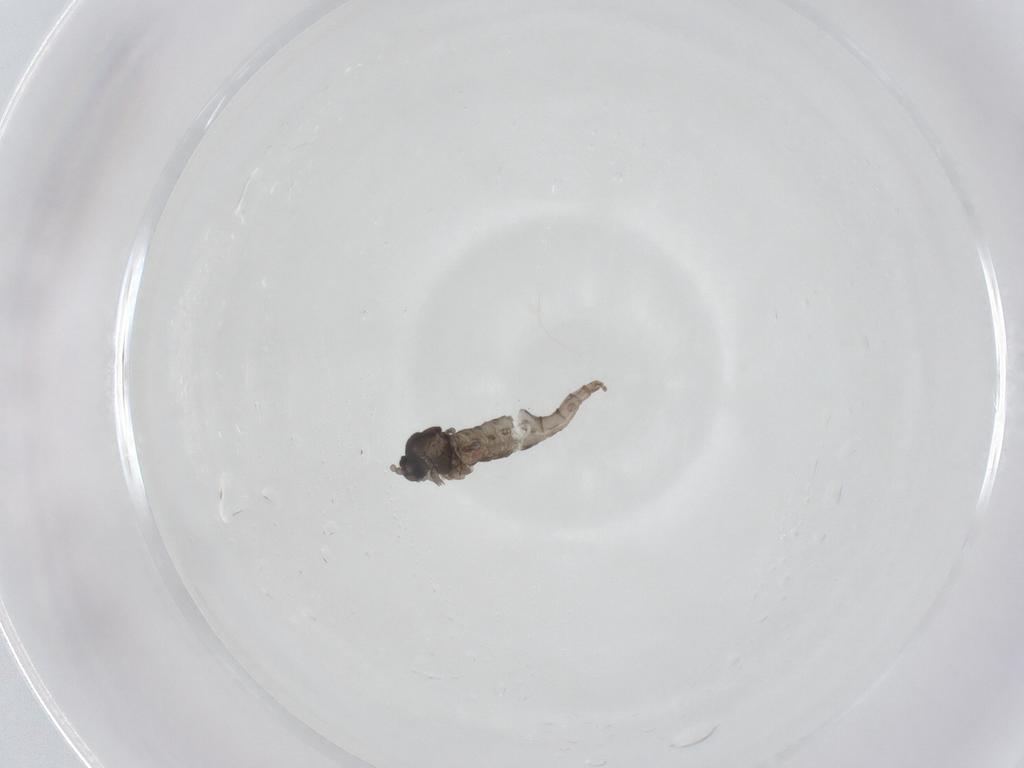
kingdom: Animalia
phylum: Arthropoda
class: Insecta
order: Diptera
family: Cecidomyiidae
